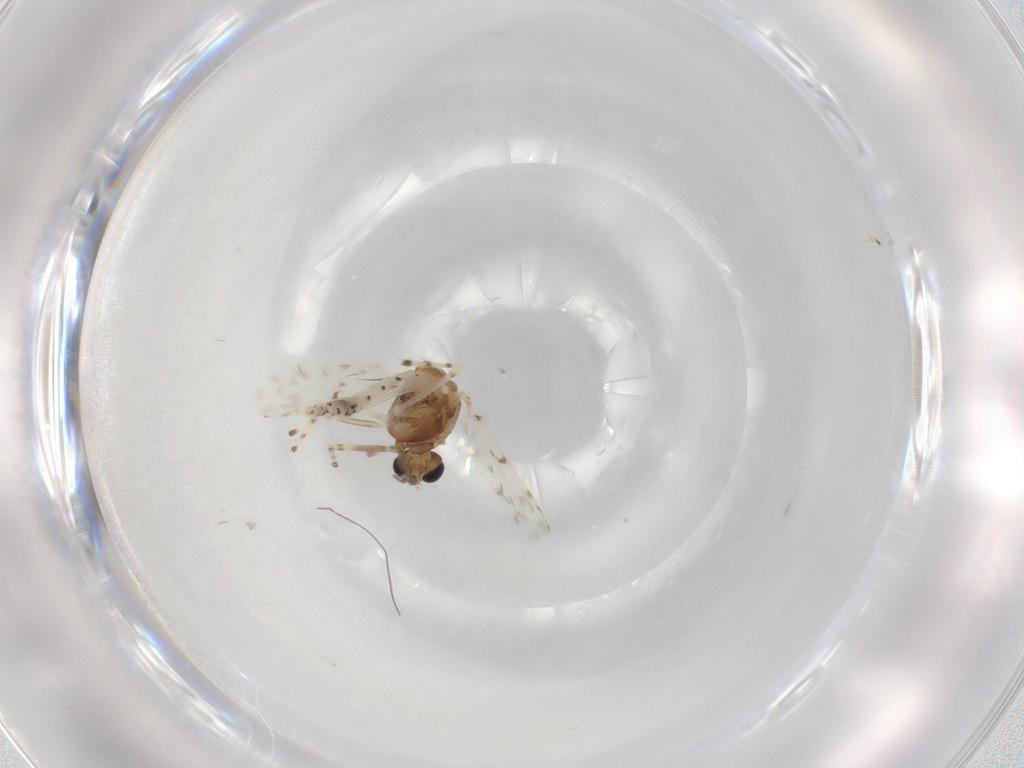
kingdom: Animalia
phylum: Arthropoda
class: Insecta
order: Diptera
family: Chironomidae
